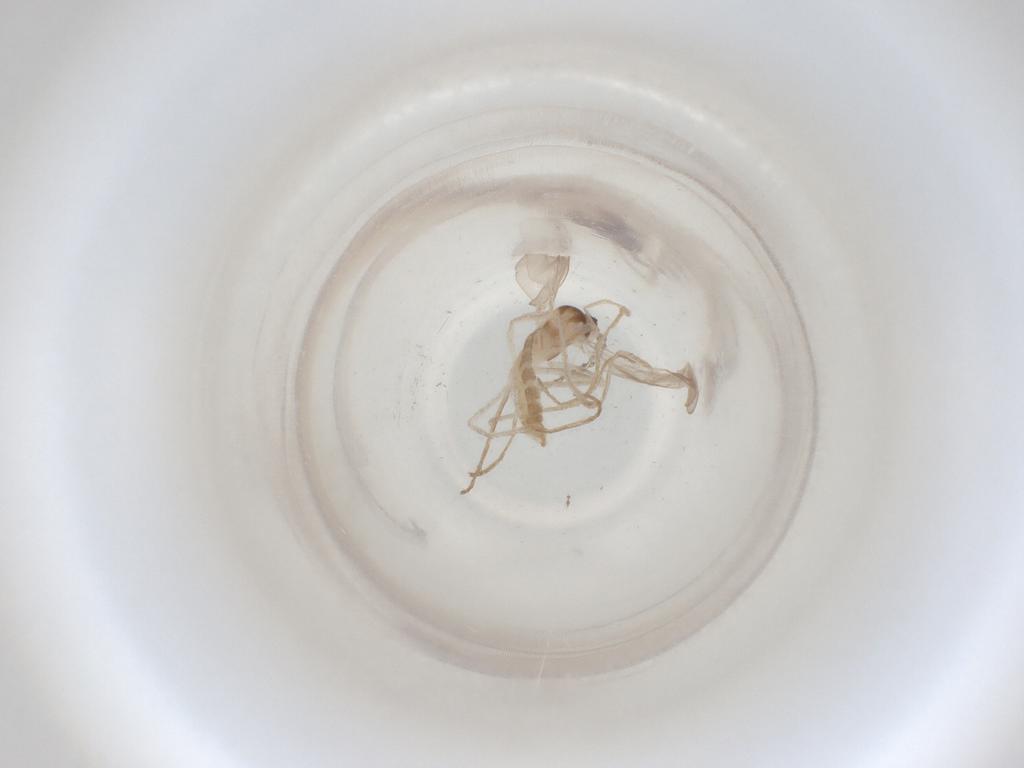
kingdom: Animalia
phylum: Arthropoda
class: Insecta
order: Diptera
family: Cecidomyiidae
